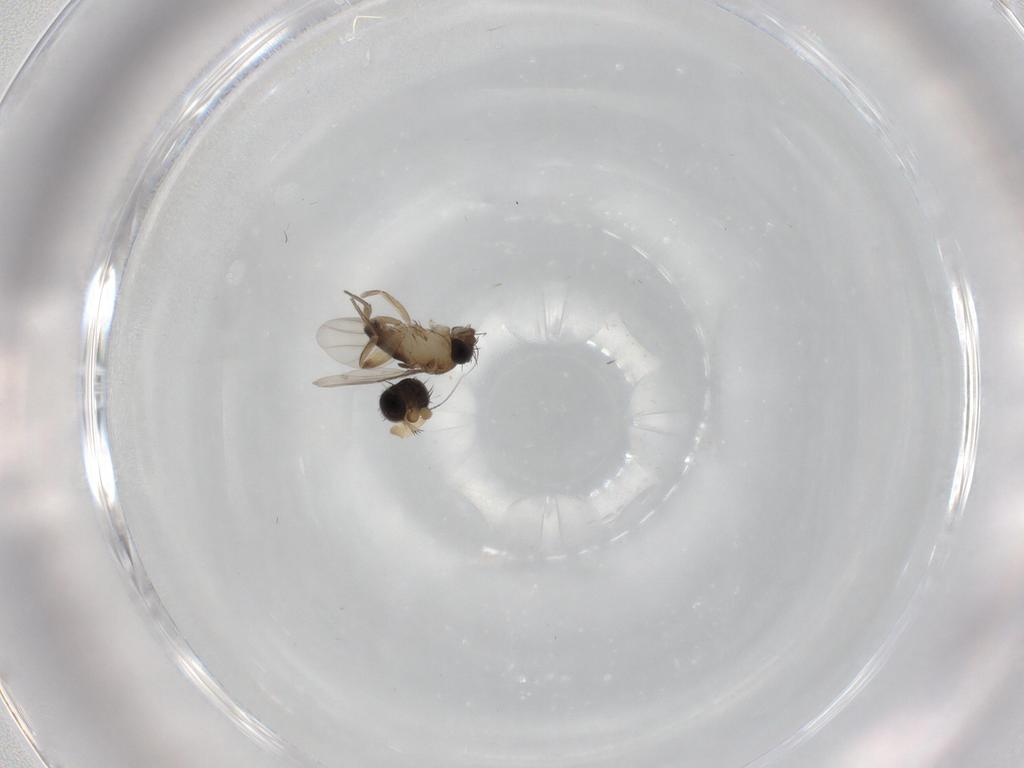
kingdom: Animalia
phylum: Arthropoda
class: Insecta
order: Diptera
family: Phoridae
